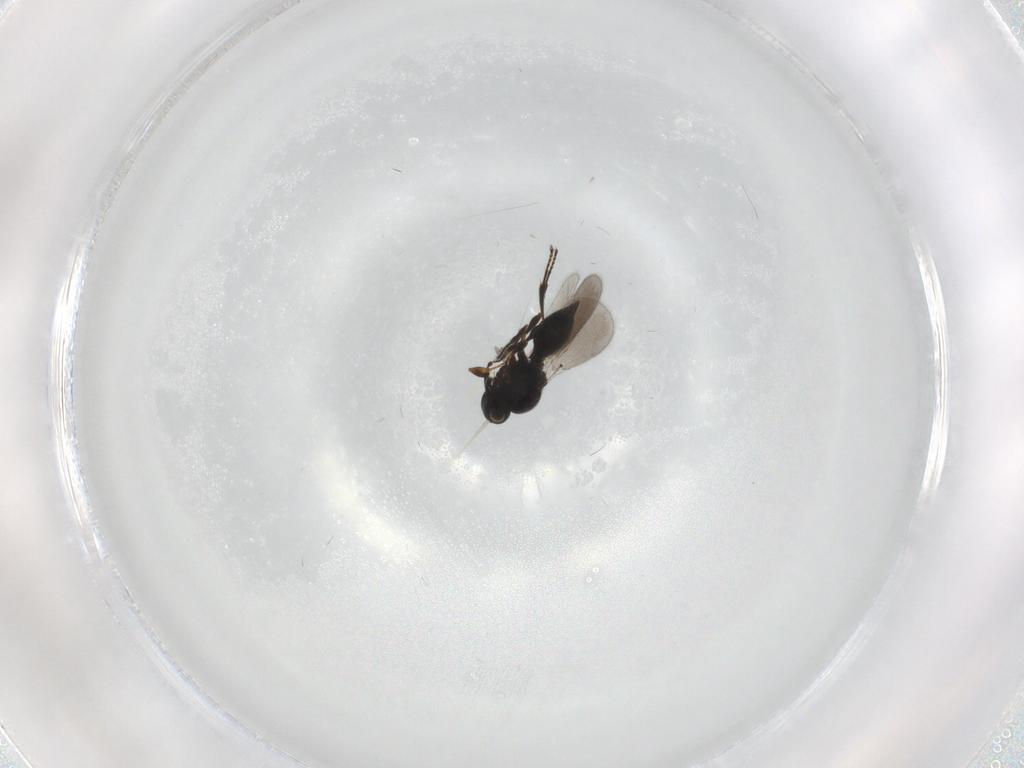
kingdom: Animalia
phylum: Arthropoda
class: Insecta
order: Hymenoptera
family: Platygastridae
